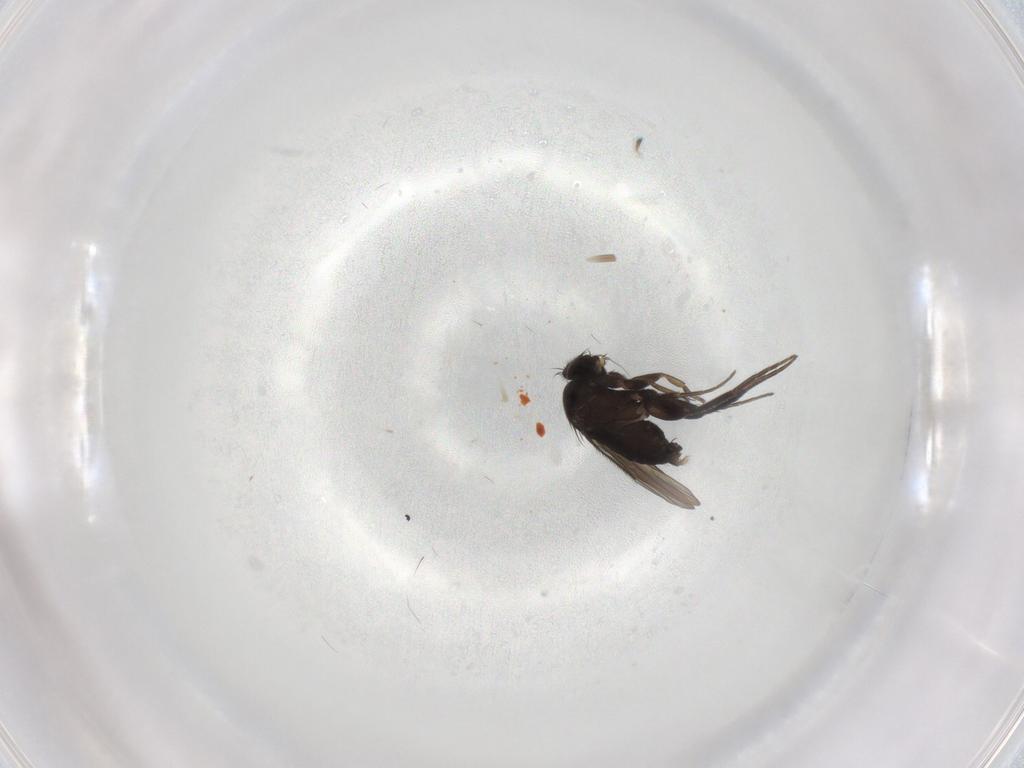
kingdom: Animalia
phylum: Arthropoda
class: Insecta
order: Diptera
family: Phoridae
